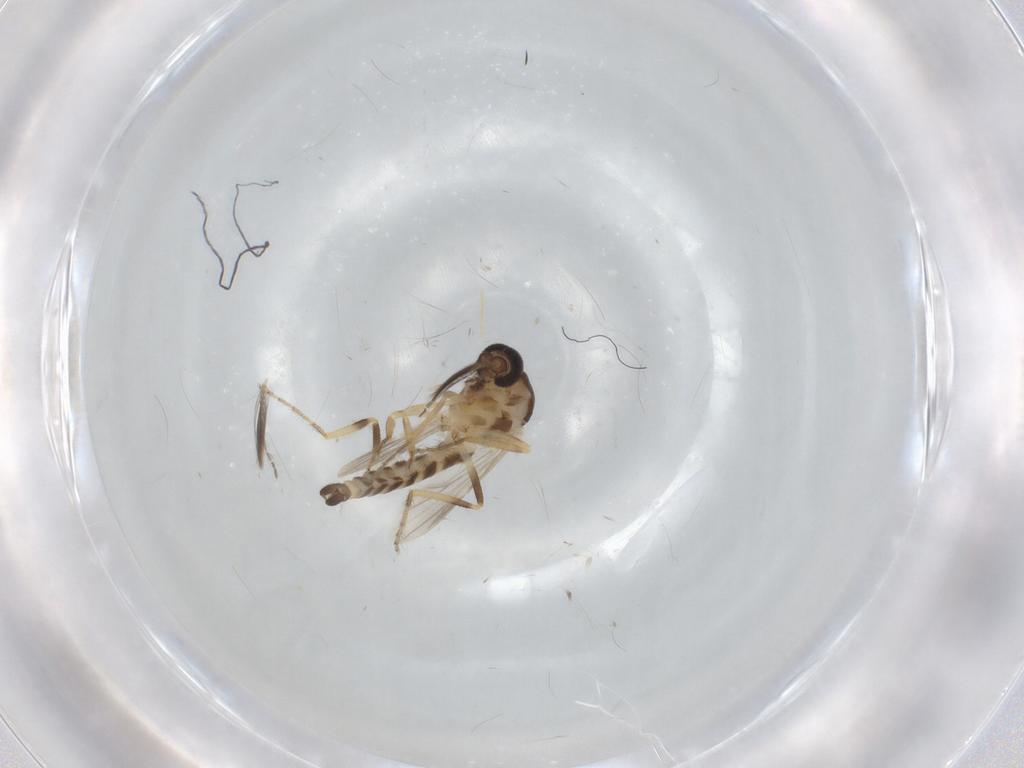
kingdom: Animalia
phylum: Arthropoda
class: Insecta
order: Diptera
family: Ceratopogonidae
